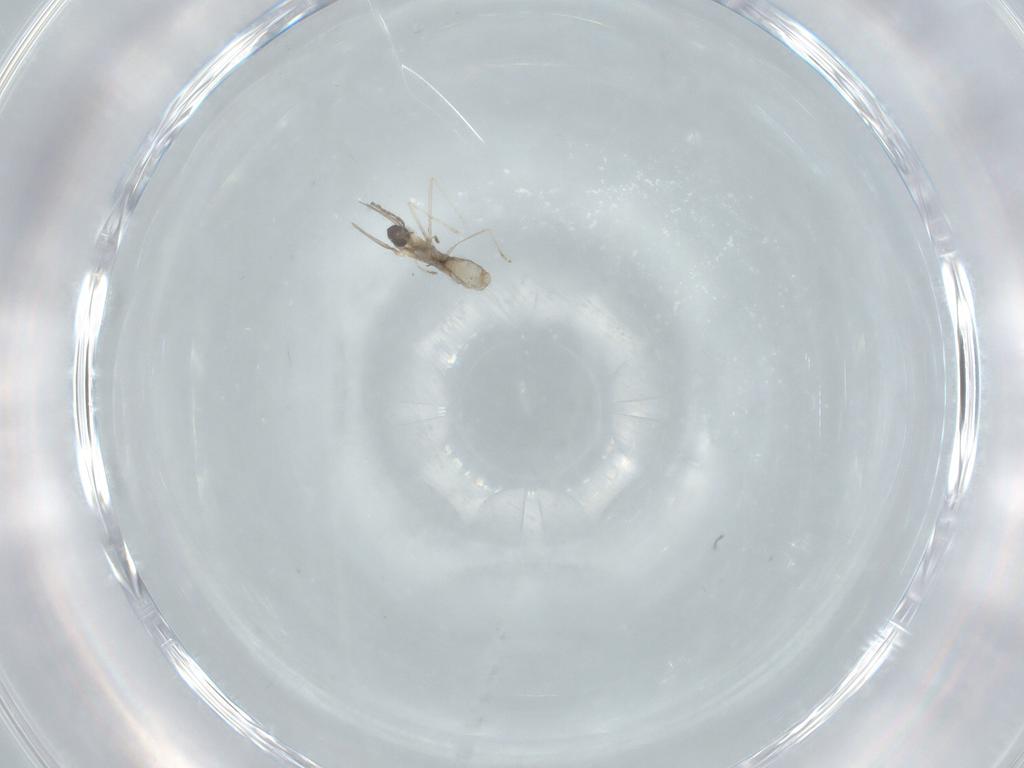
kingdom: Animalia
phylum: Arthropoda
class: Insecta
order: Diptera
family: Cecidomyiidae
